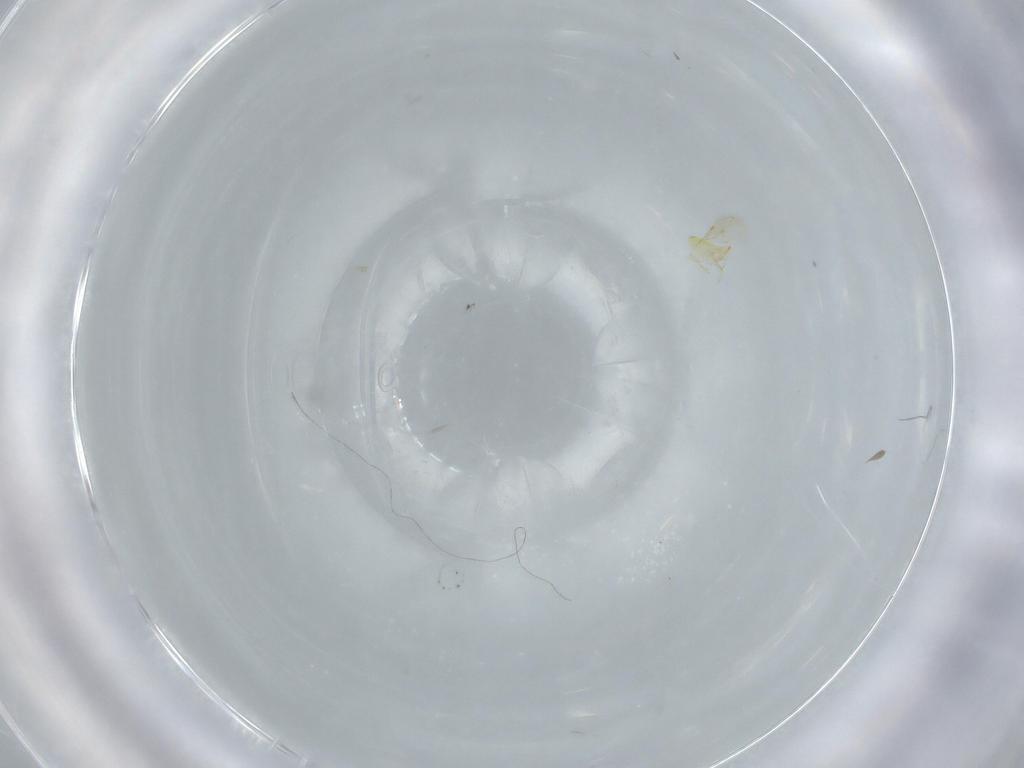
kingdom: Animalia
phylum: Arthropoda
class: Insecta
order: Hymenoptera
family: Aphelinidae
